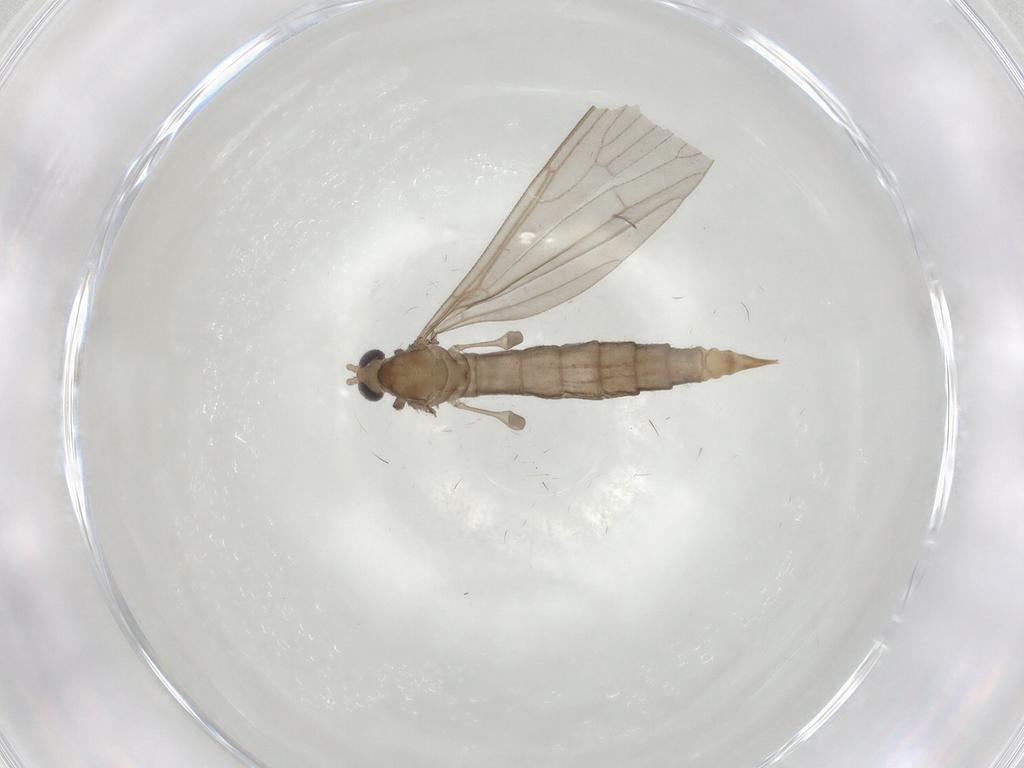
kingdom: Animalia
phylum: Arthropoda
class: Insecta
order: Diptera
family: Limoniidae
